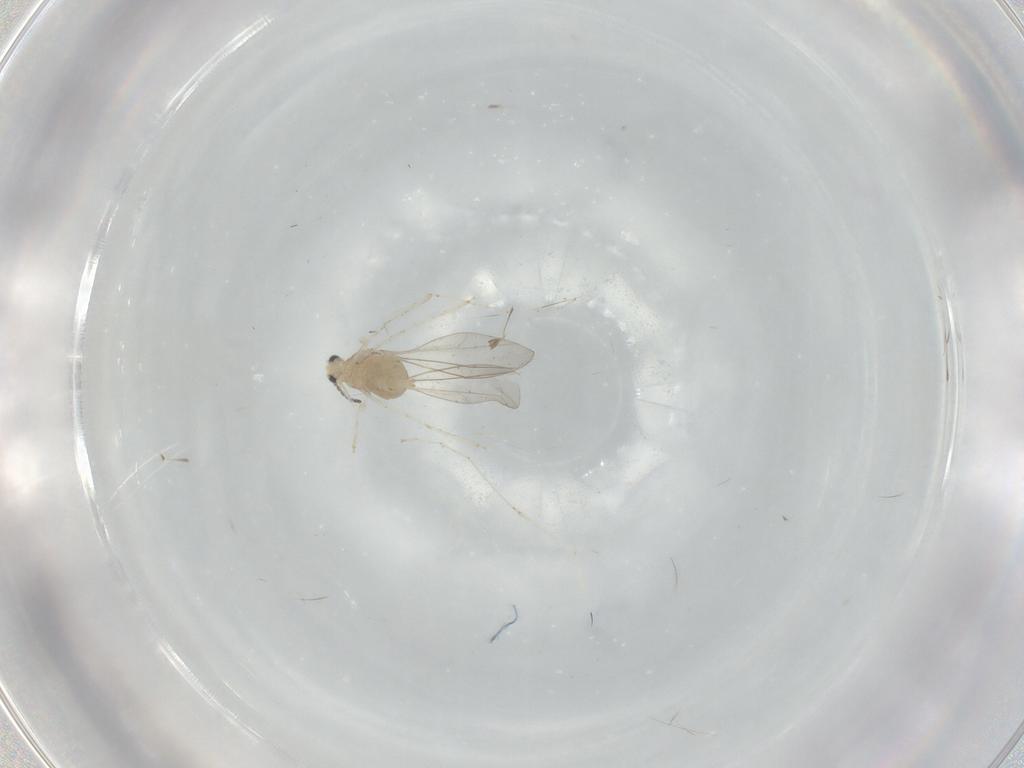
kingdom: Animalia
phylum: Arthropoda
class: Insecta
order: Diptera
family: Cecidomyiidae
